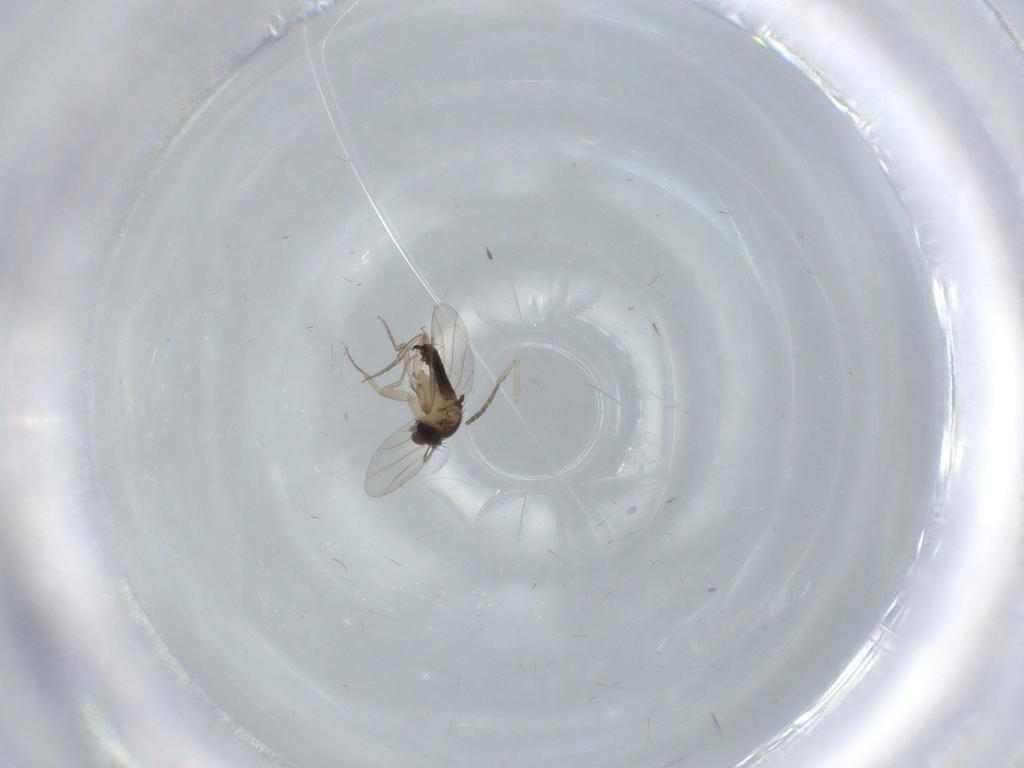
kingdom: Animalia
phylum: Arthropoda
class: Insecta
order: Diptera
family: Phoridae
